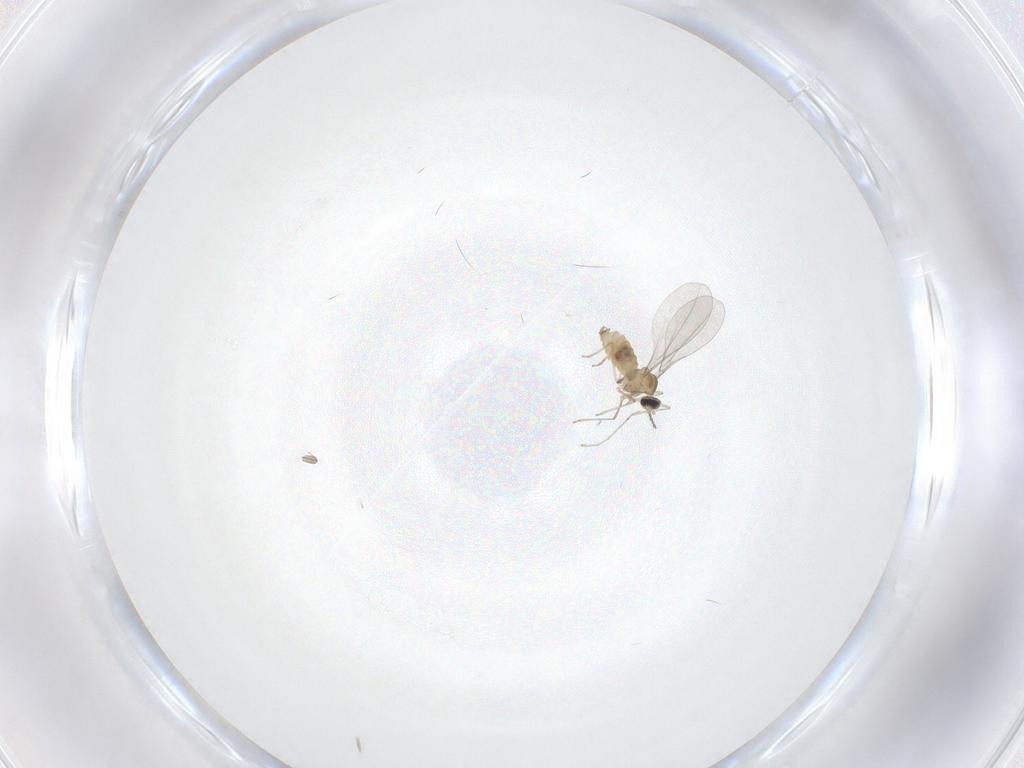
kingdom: Animalia
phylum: Arthropoda
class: Insecta
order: Diptera
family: Cecidomyiidae
